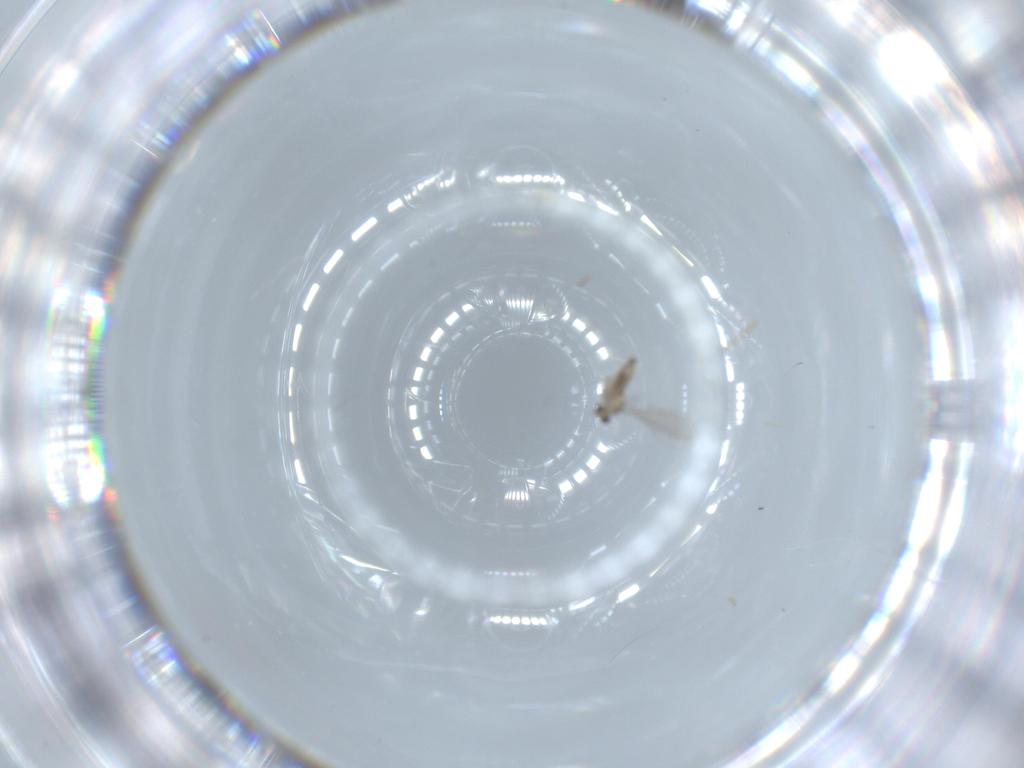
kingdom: Animalia
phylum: Arthropoda
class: Insecta
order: Diptera
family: Cecidomyiidae
